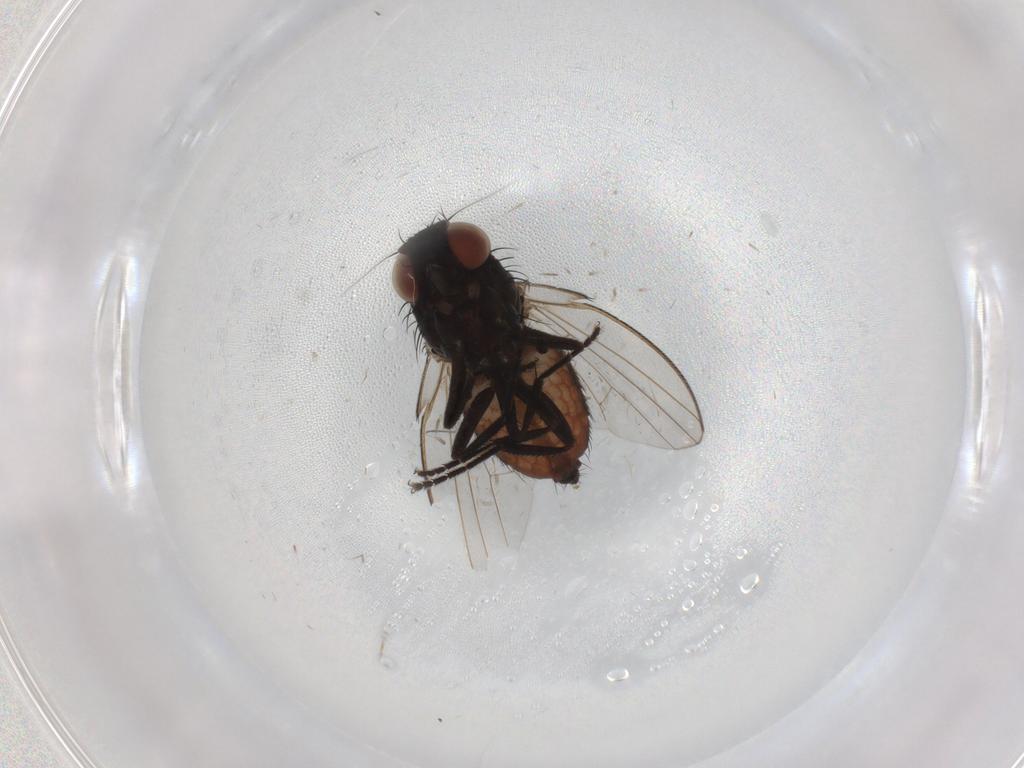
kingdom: Animalia
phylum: Arthropoda
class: Insecta
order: Diptera
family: Milichiidae
